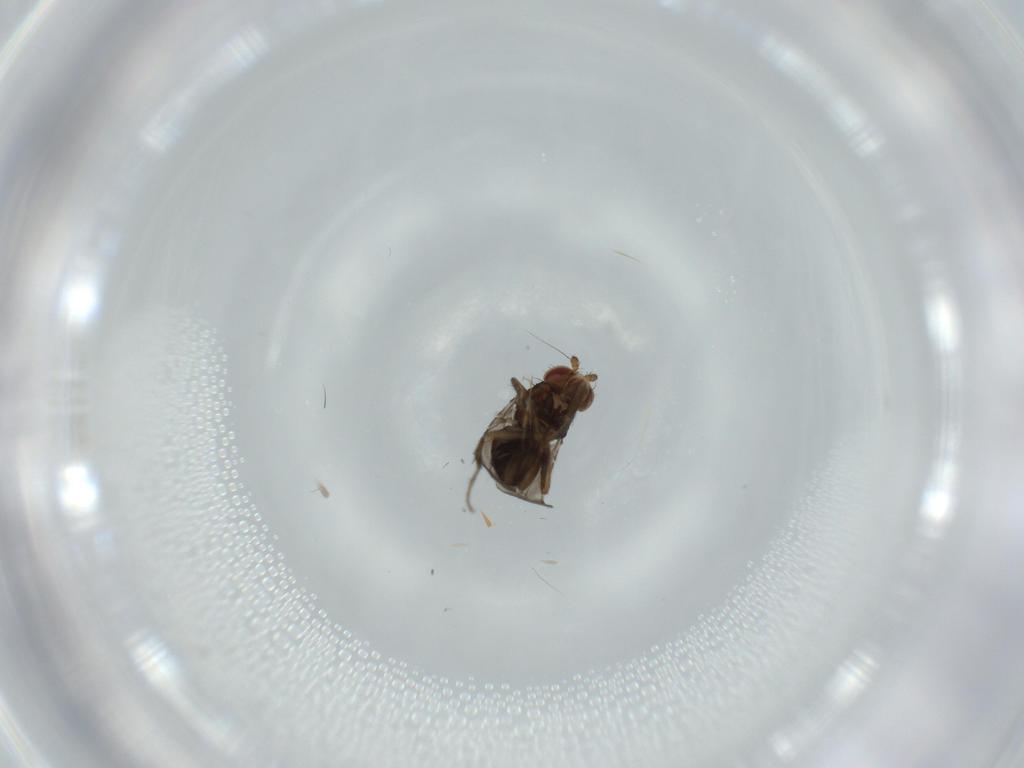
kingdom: Animalia
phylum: Arthropoda
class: Insecta
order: Diptera
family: Sphaeroceridae
